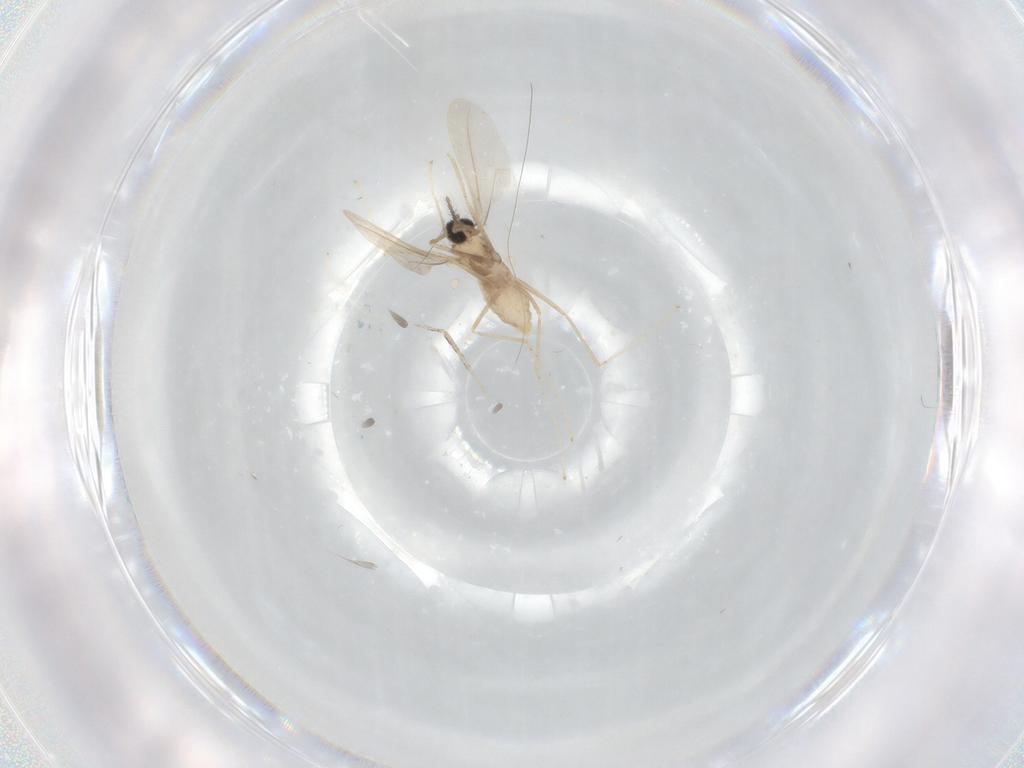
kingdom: Animalia
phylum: Arthropoda
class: Insecta
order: Diptera
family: Cecidomyiidae
